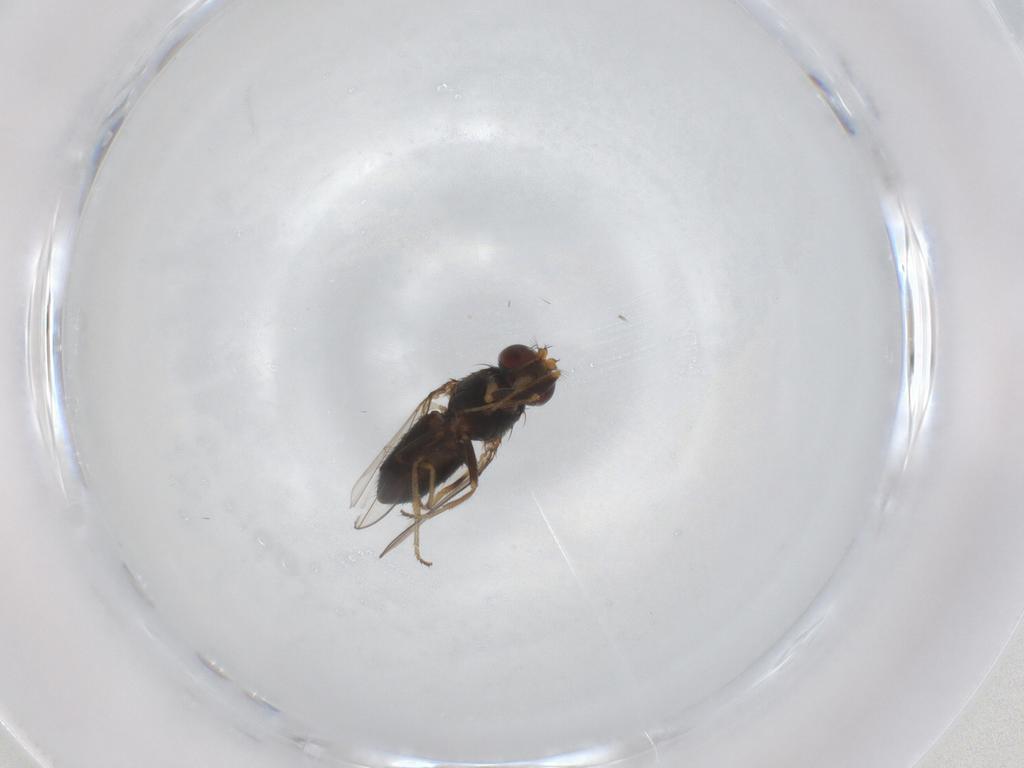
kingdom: Animalia
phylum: Arthropoda
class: Insecta
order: Diptera
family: Ephydridae
